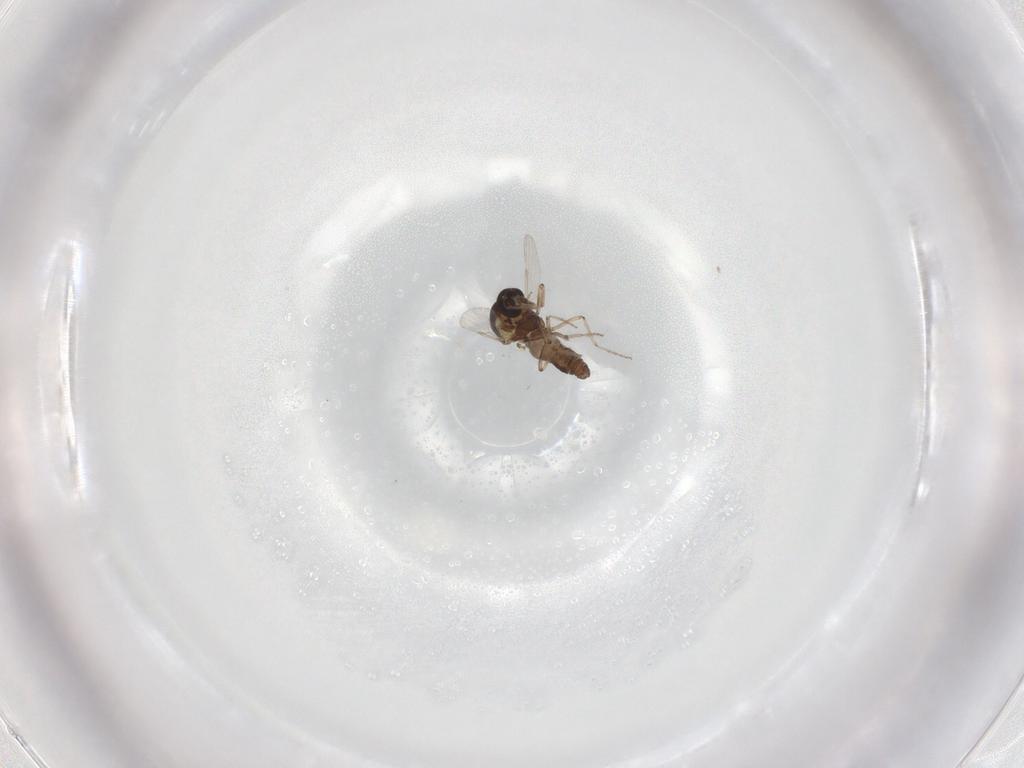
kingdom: Animalia
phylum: Arthropoda
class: Insecta
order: Diptera
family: Ceratopogonidae
